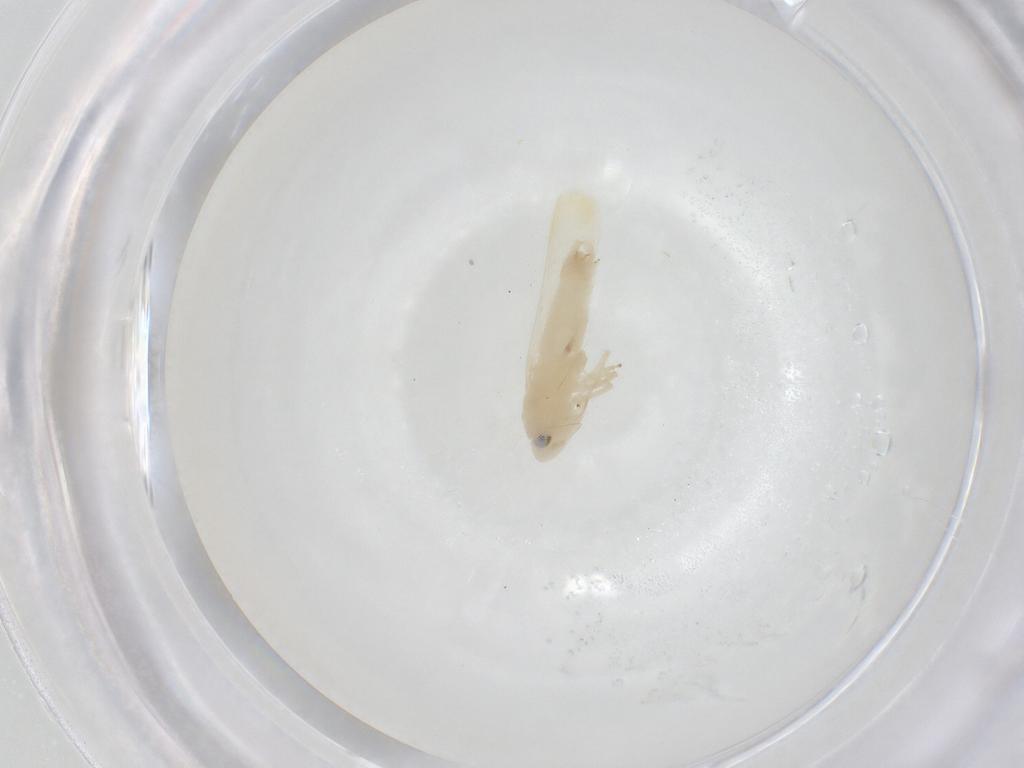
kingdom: Animalia
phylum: Arthropoda
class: Insecta
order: Hemiptera
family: Cicadellidae
